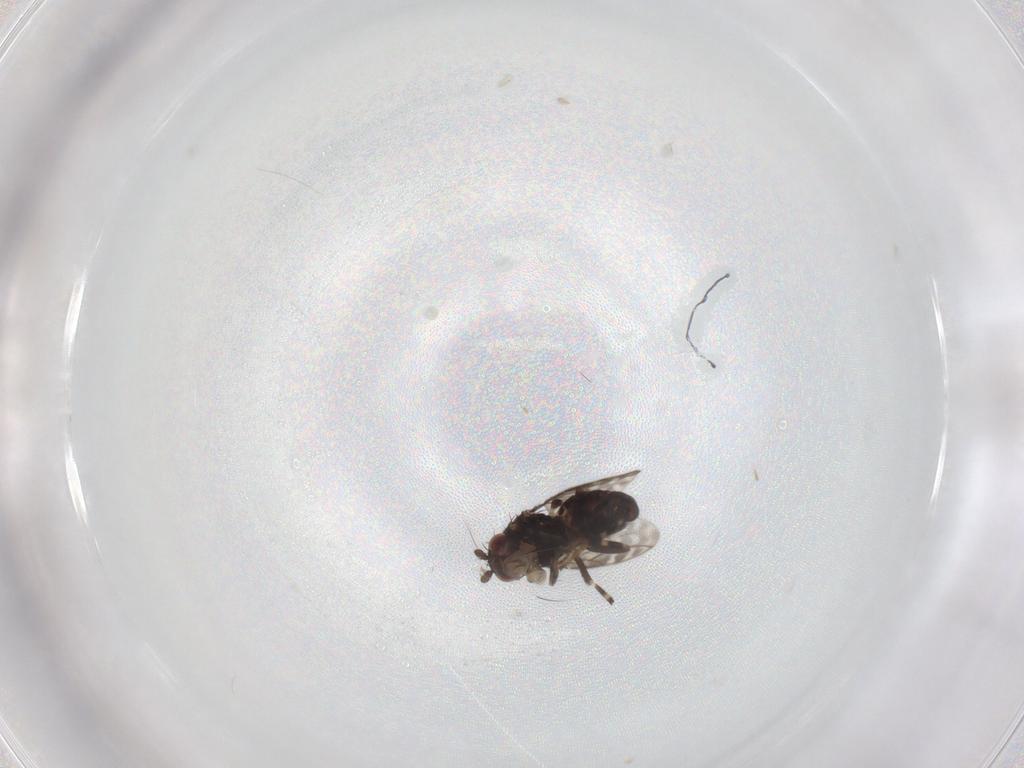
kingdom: Animalia
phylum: Arthropoda
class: Insecta
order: Diptera
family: Sphaeroceridae
